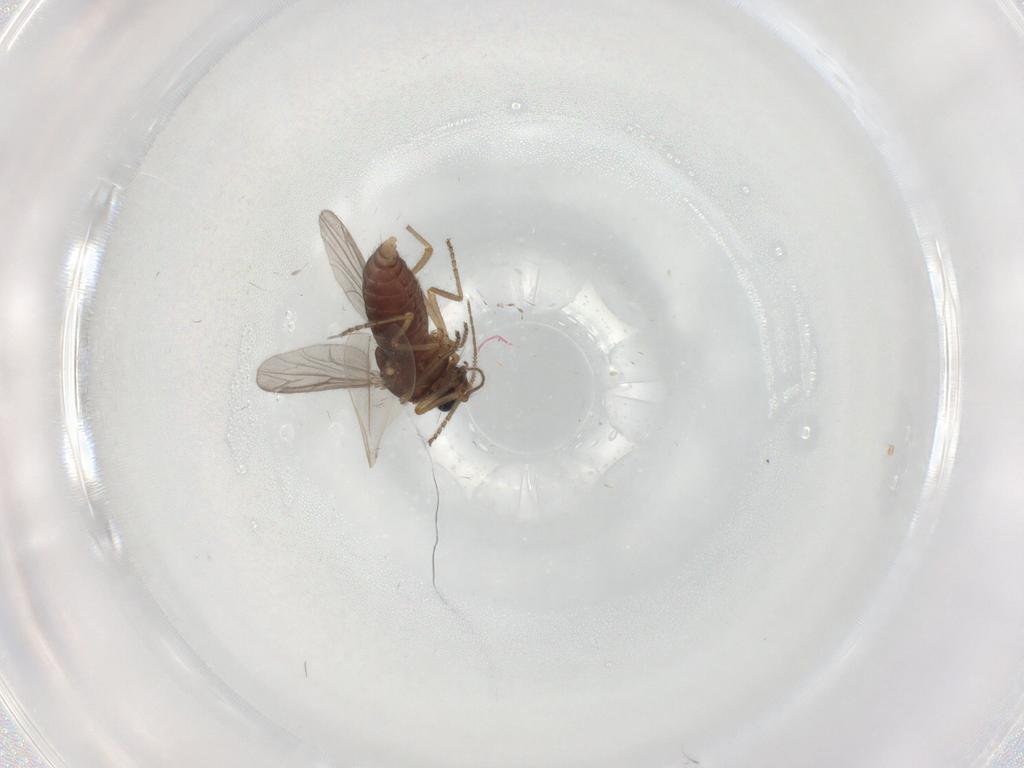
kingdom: Animalia
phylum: Arthropoda
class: Insecta
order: Diptera
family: Ceratopogonidae
